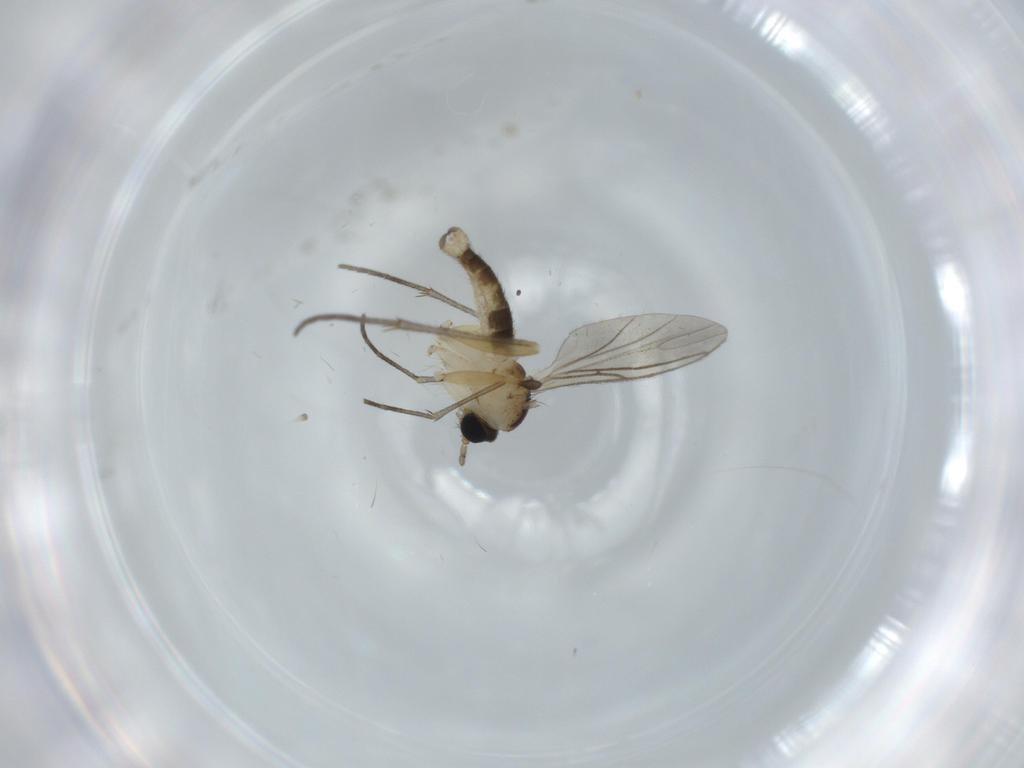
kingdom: Animalia
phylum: Arthropoda
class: Insecta
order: Diptera
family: Sciaridae
